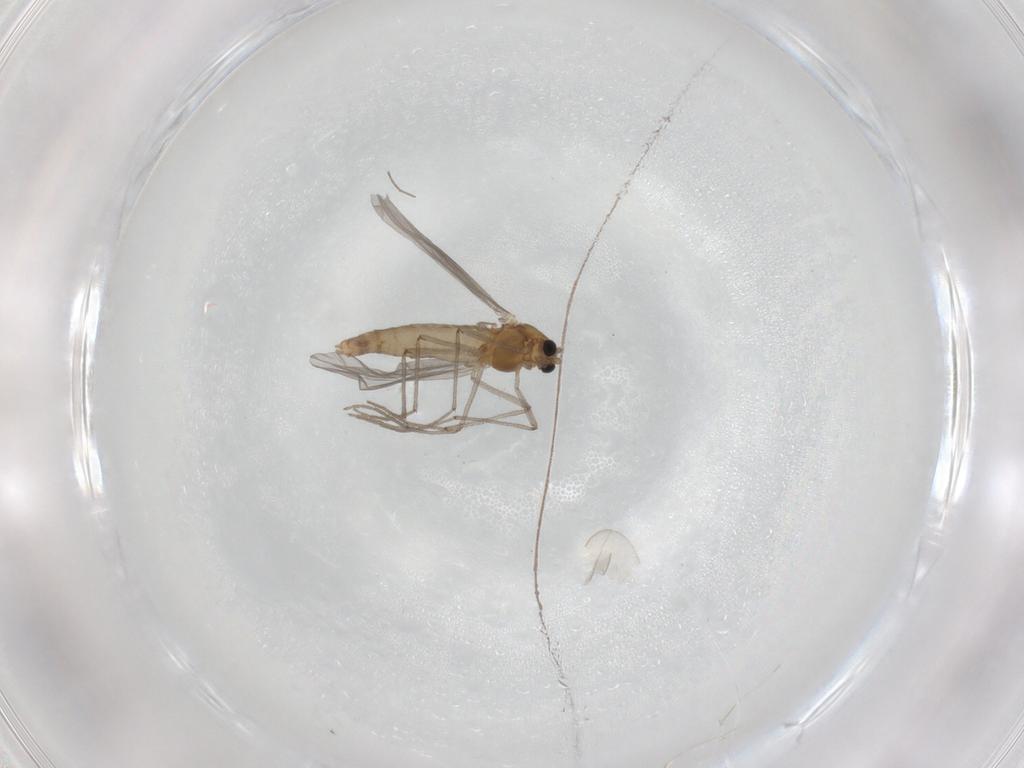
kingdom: Animalia
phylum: Arthropoda
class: Insecta
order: Diptera
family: Chironomidae
